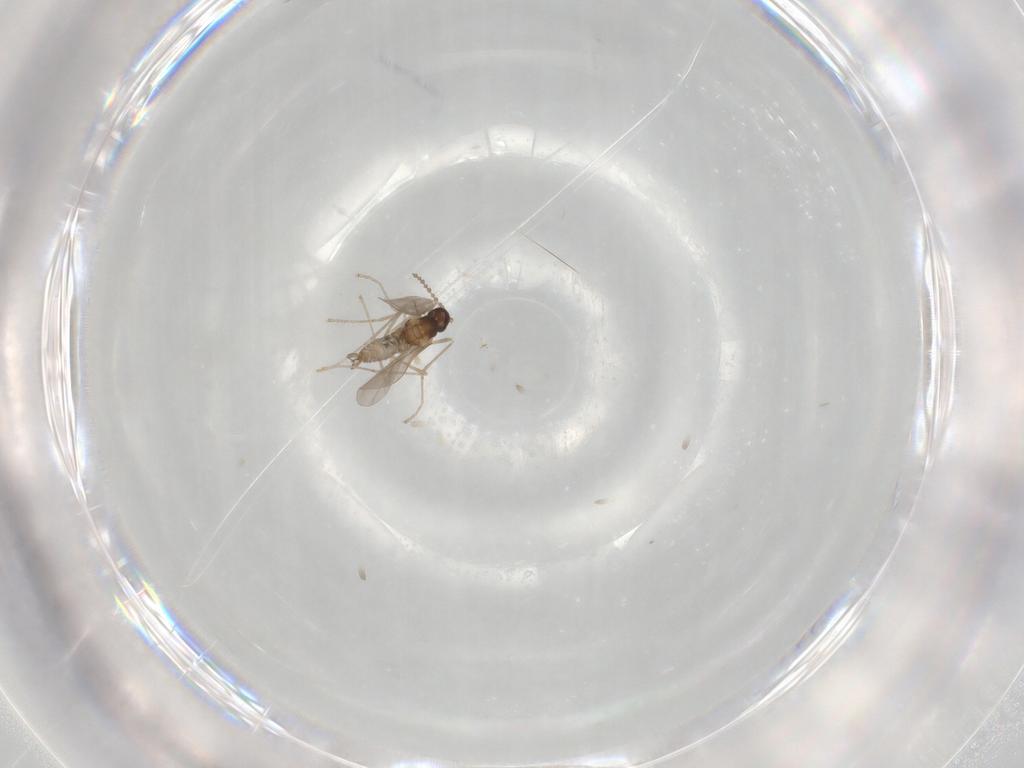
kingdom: Animalia
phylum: Arthropoda
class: Insecta
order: Diptera
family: Cecidomyiidae
